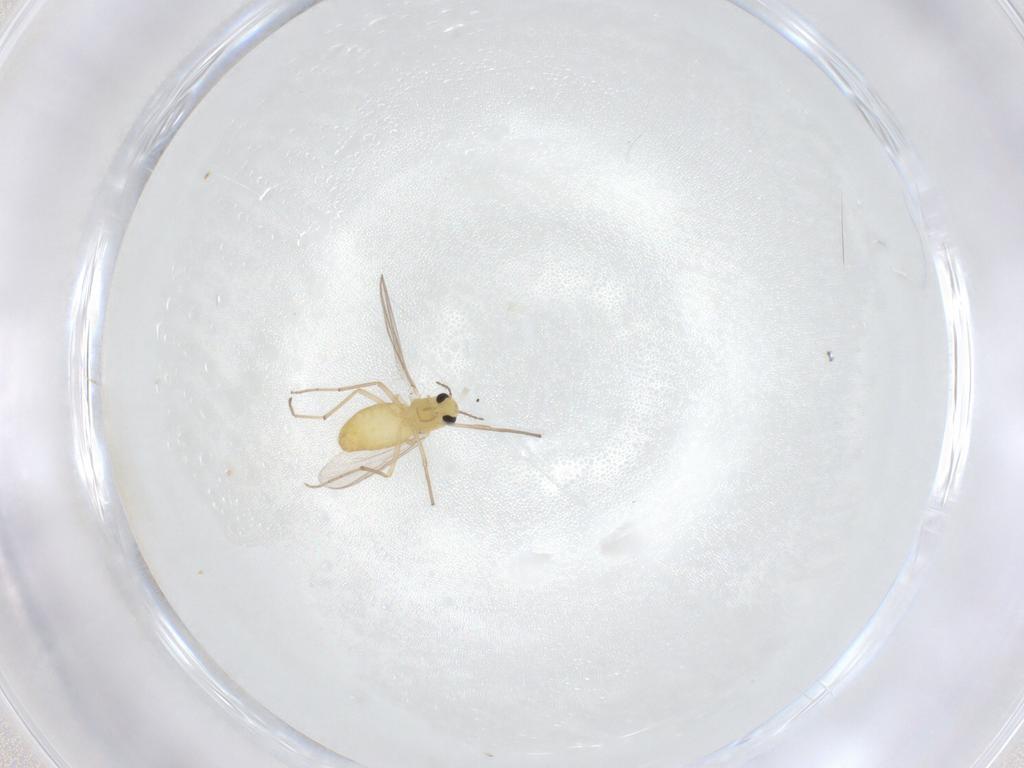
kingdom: Animalia
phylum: Arthropoda
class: Insecta
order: Diptera
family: Chironomidae
